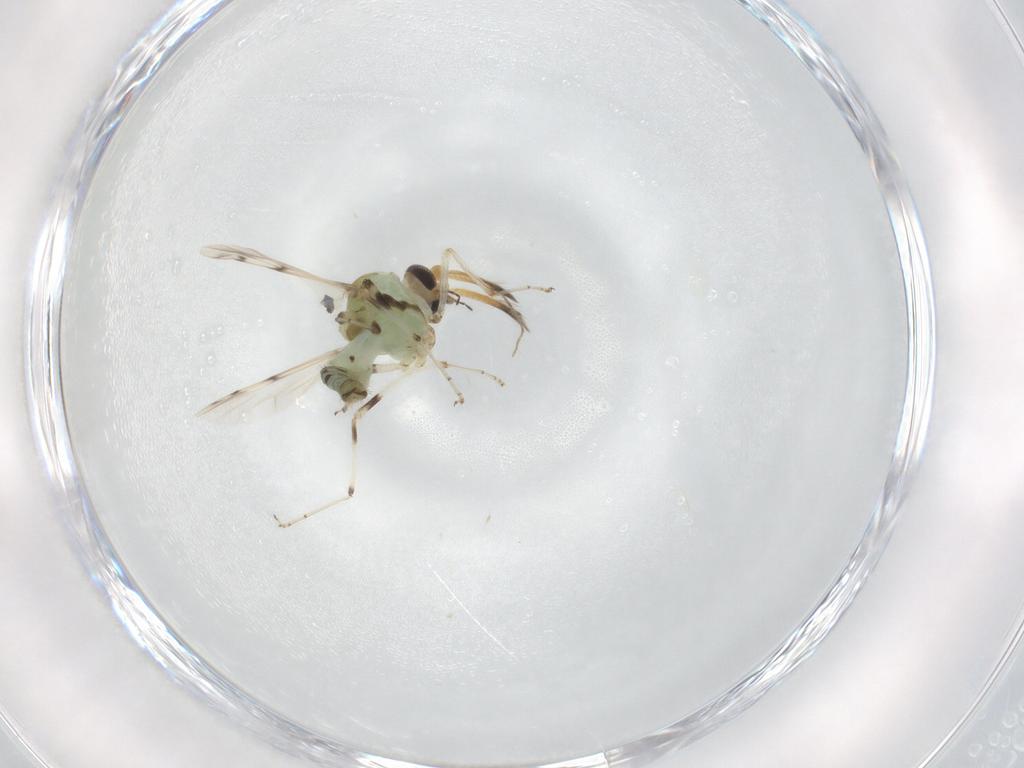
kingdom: Animalia
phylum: Arthropoda
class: Insecta
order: Diptera
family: Ceratopogonidae
